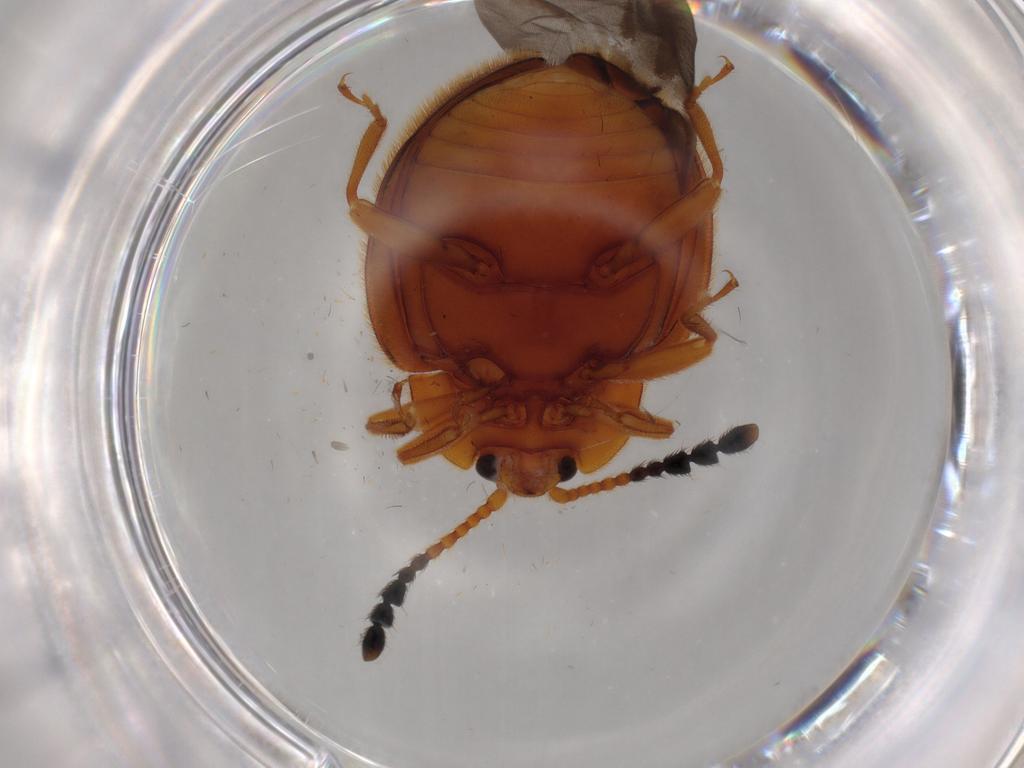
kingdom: Animalia
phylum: Arthropoda
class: Insecta
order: Coleoptera
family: Endomychidae
